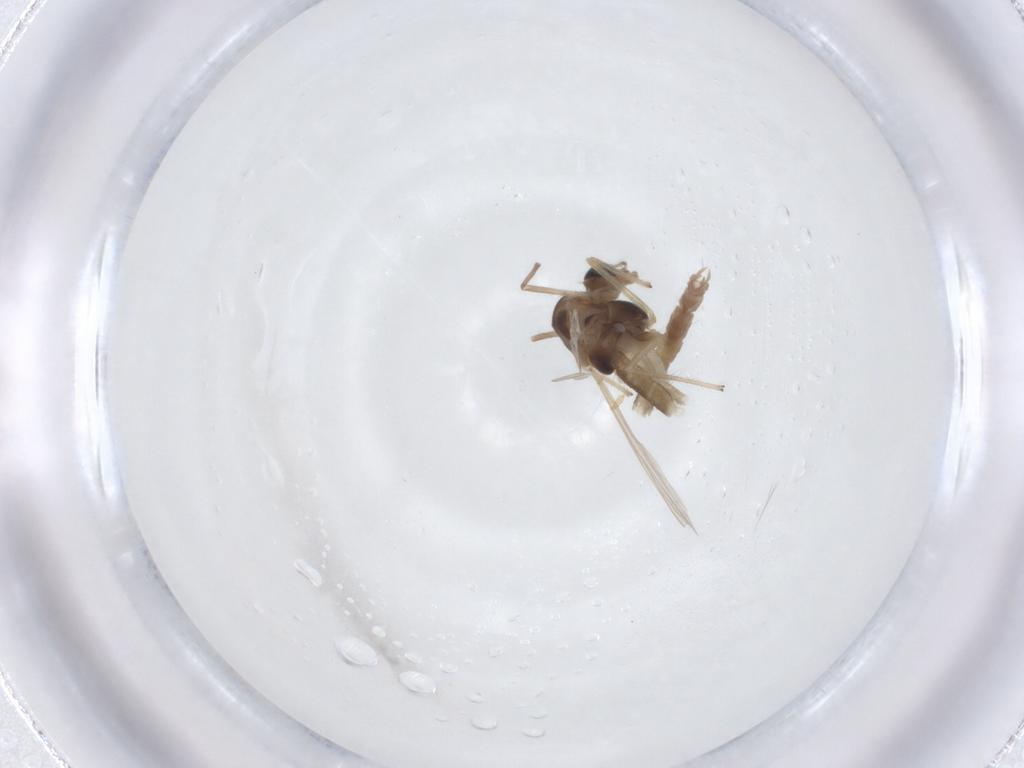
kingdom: Animalia
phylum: Arthropoda
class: Insecta
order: Diptera
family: Chironomidae
